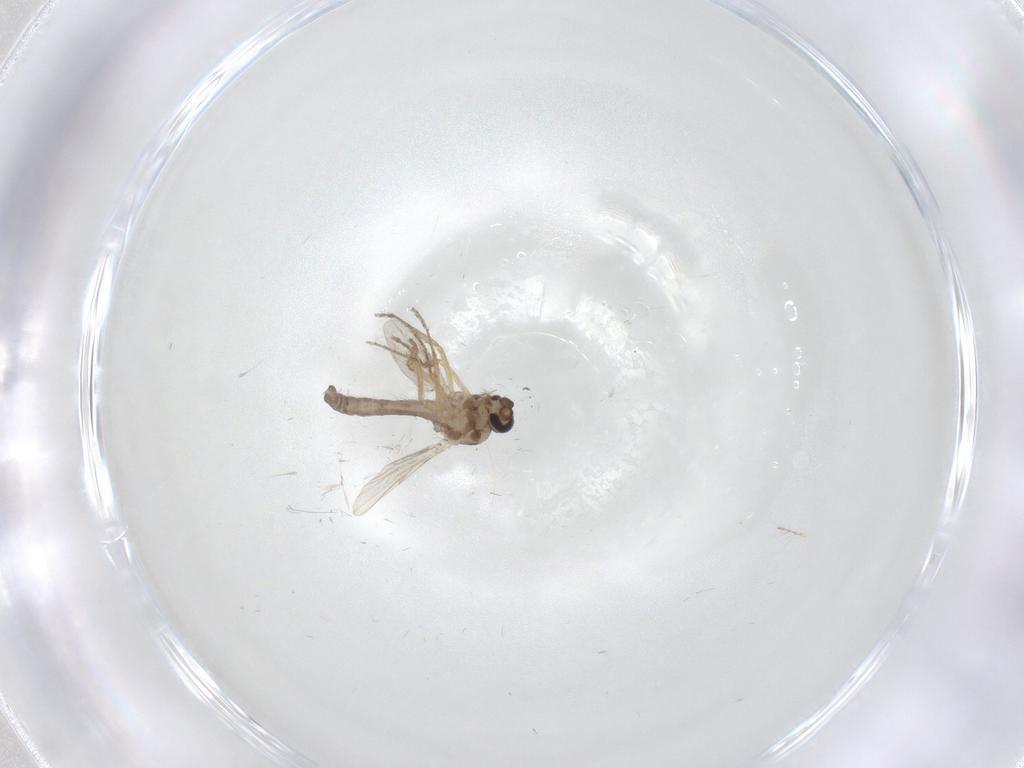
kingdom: Animalia
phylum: Arthropoda
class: Insecta
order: Diptera
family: Ceratopogonidae
